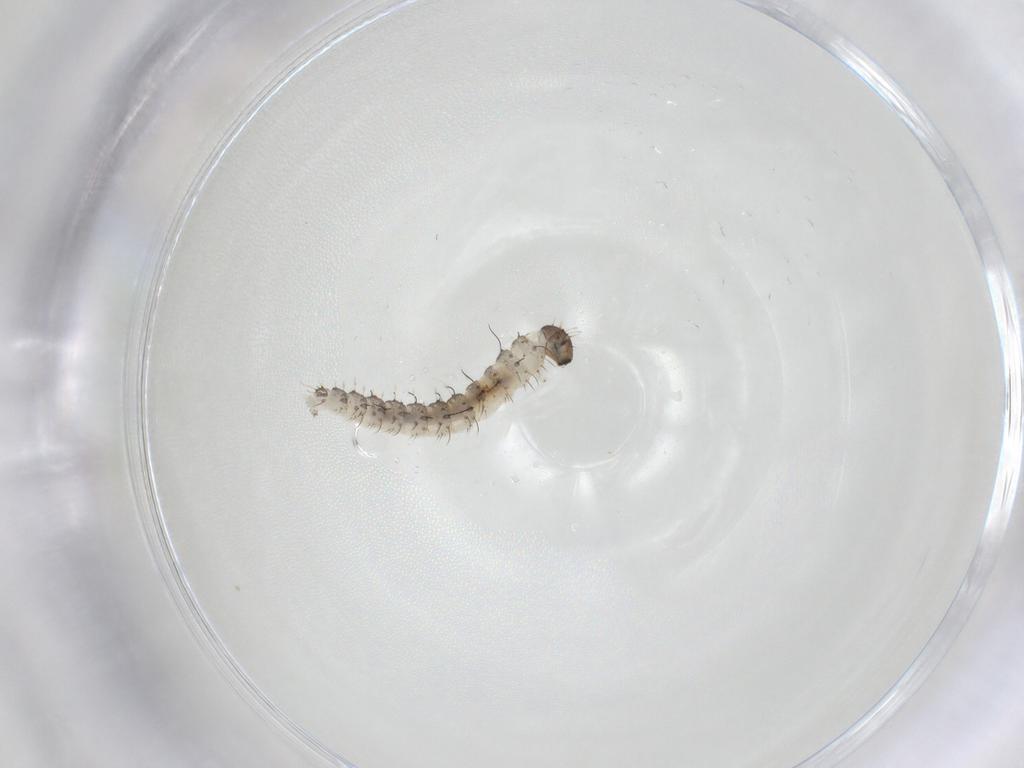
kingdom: Animalia
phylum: Arthropoda
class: Insecta
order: Diptera
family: Ceratopogonidae
